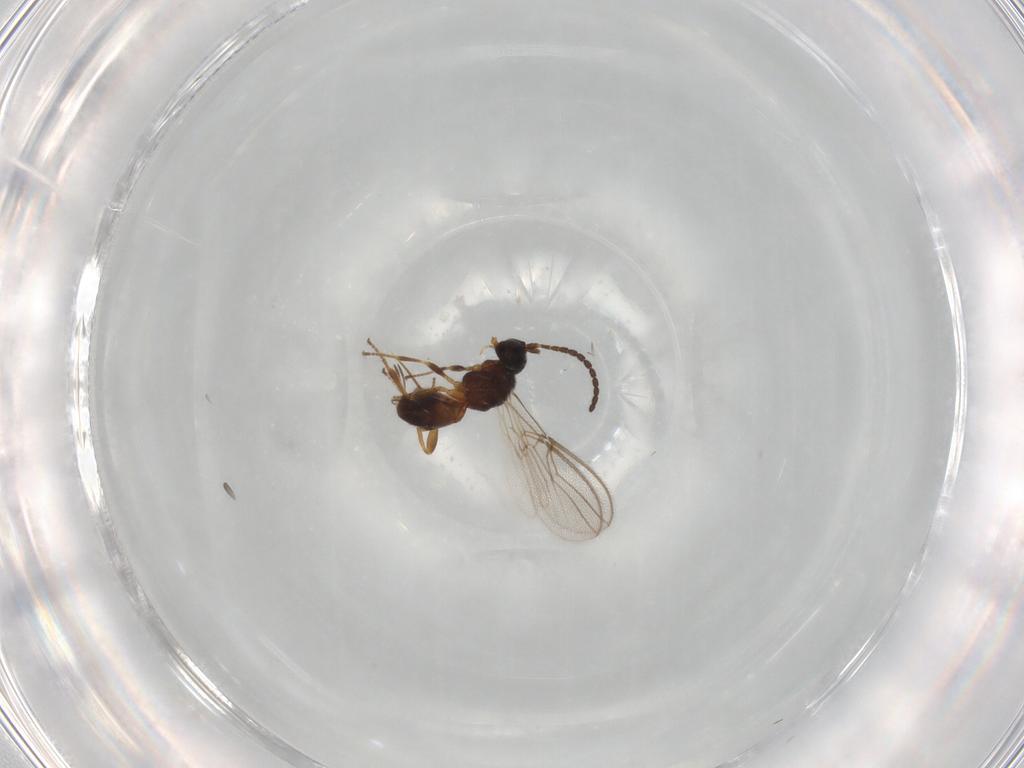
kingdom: Animalia
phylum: Arthropoda
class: Insecta
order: Hymenoptera
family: Braconidae
